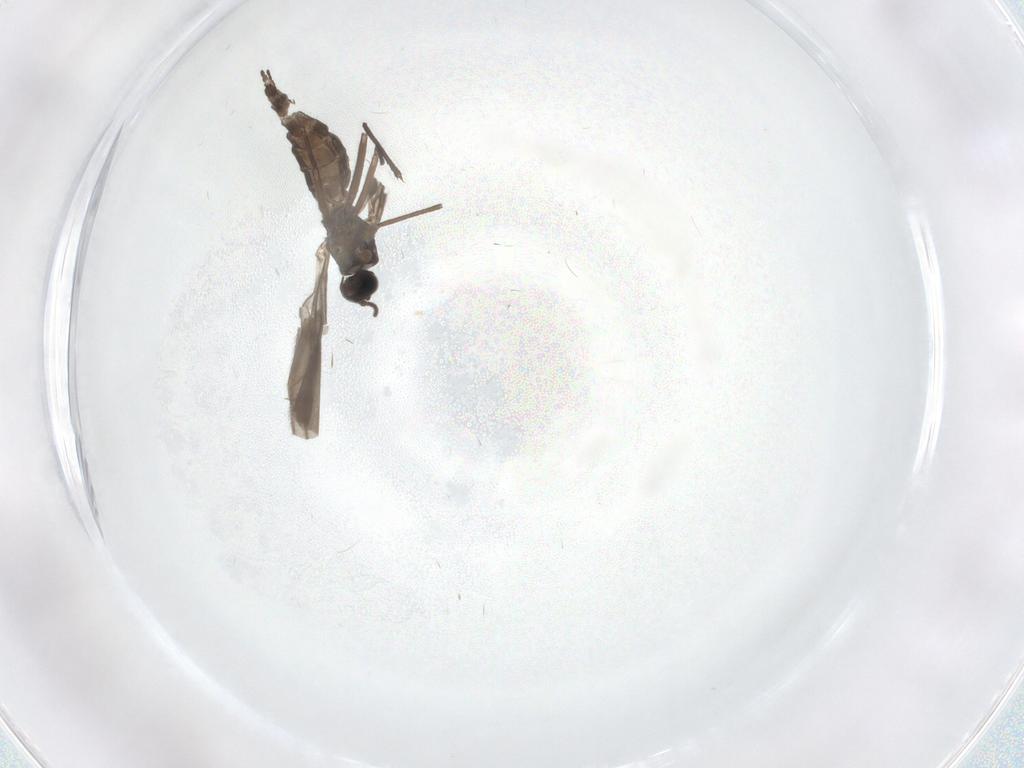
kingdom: Animalia
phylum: Arthropoda
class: Insecta
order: Diptera
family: Sciaridae
